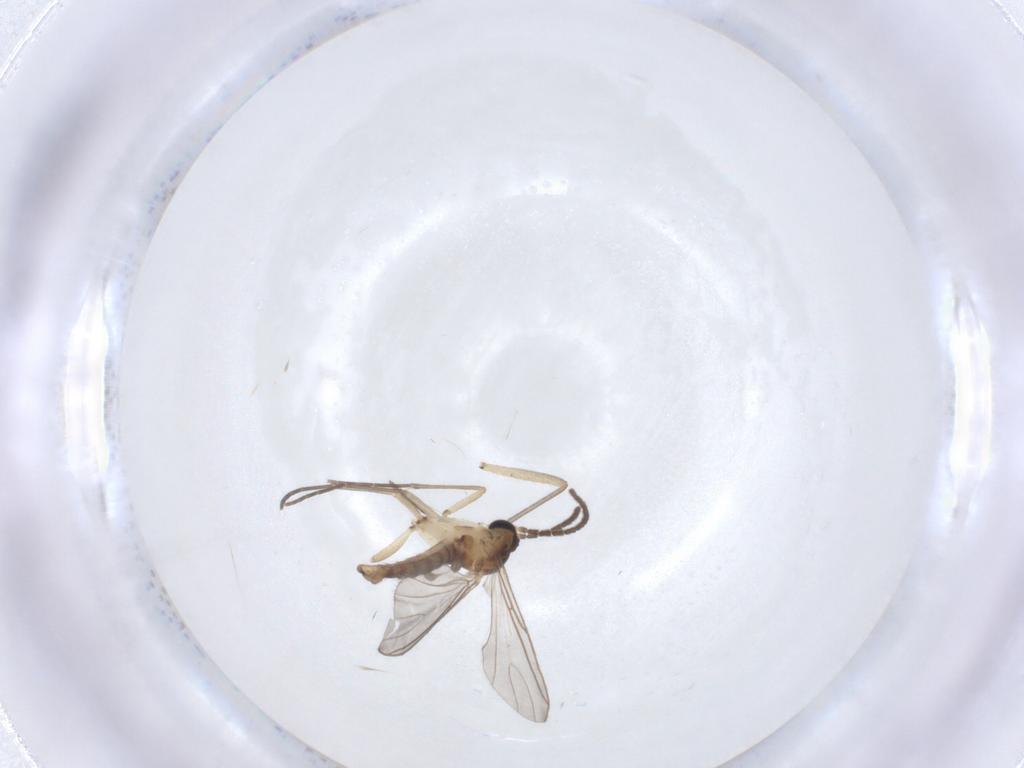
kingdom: Animalia
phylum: Arthropoda
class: Insecta
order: Diptera
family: Sciaridae
